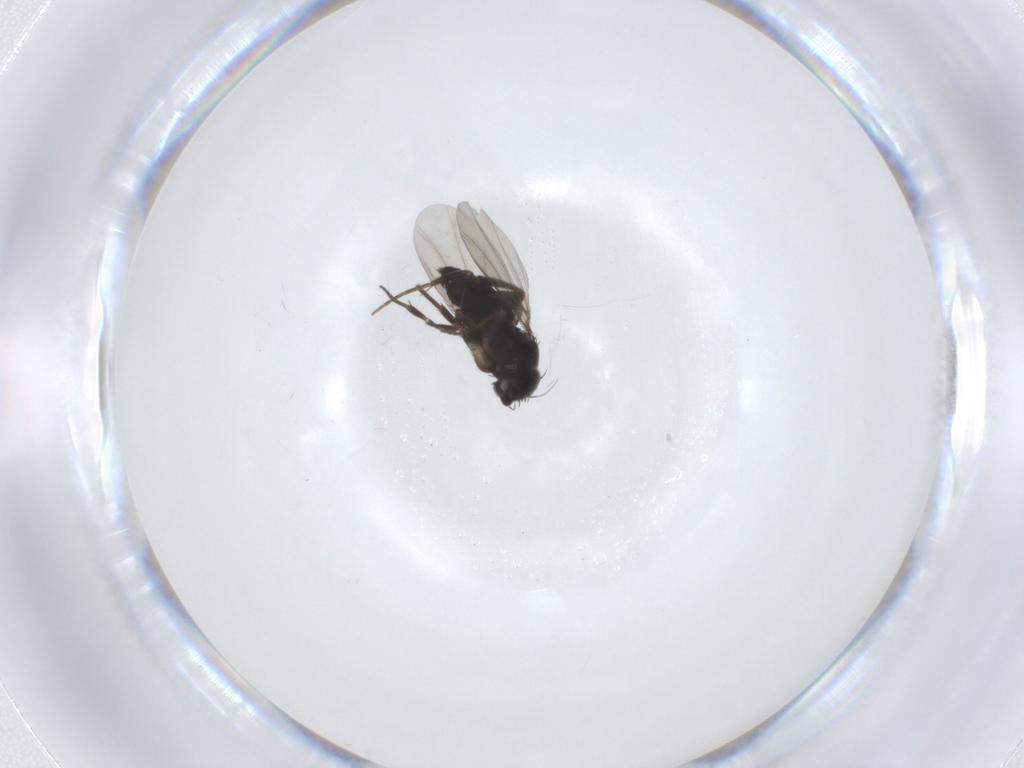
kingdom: Animalia
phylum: Arthropoda
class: Insecta
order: Diptera
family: Phoridae
